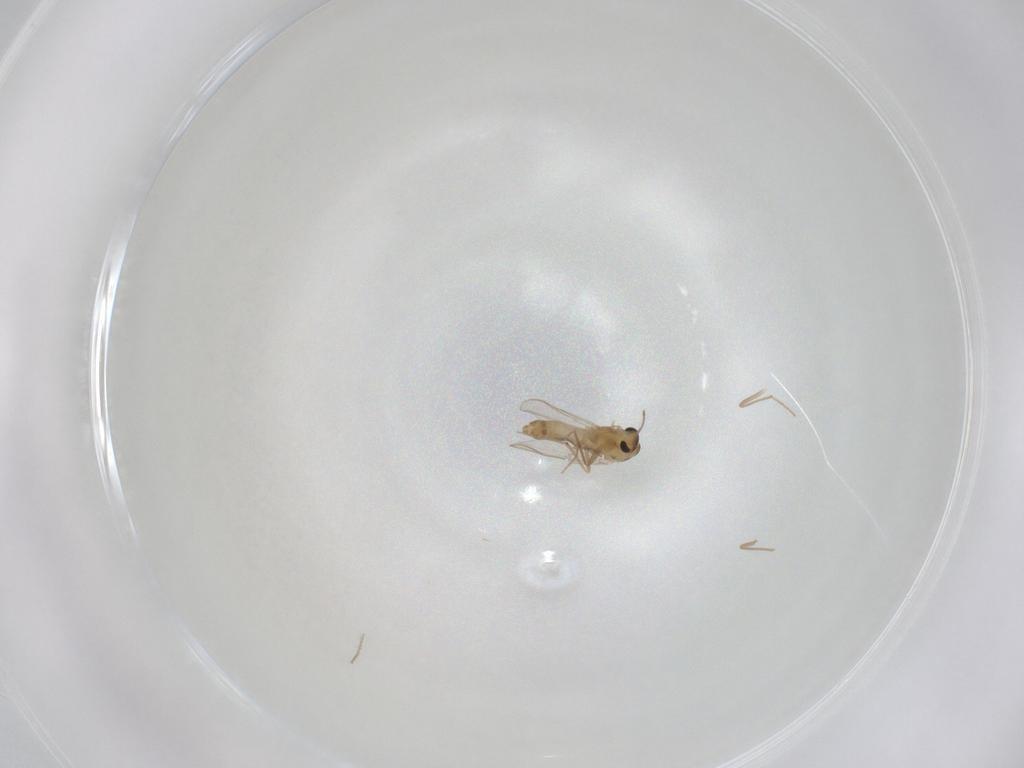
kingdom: Animalia
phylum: Arthropoda
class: Insecta
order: Diptera
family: Chironomidae
